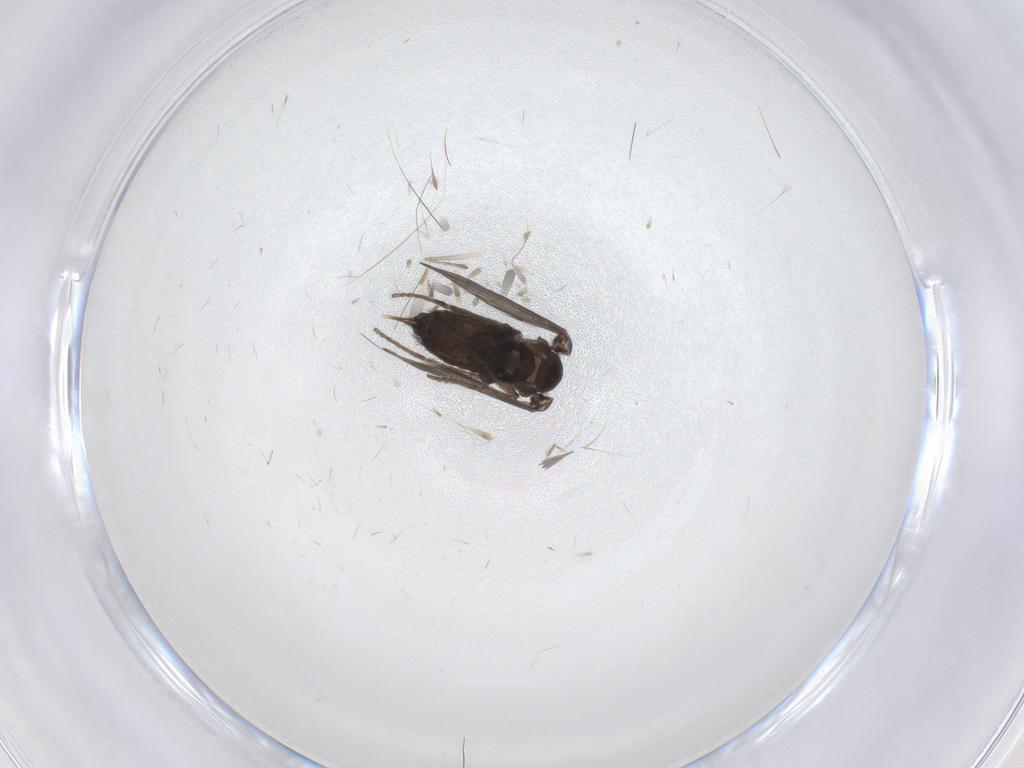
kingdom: Animalia
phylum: Arthropoda
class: Insecta
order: Diptera
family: Psychodidae
